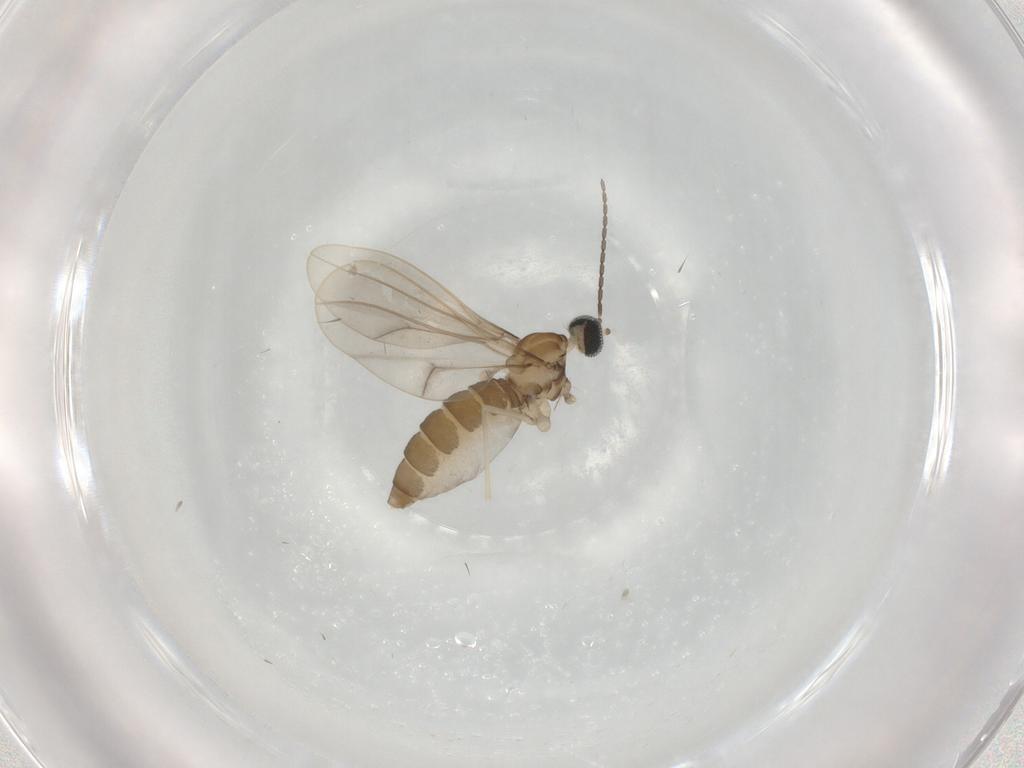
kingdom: Animalia
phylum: Arthropoda
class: Insecta
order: Diptera
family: Cecidomyiidae
